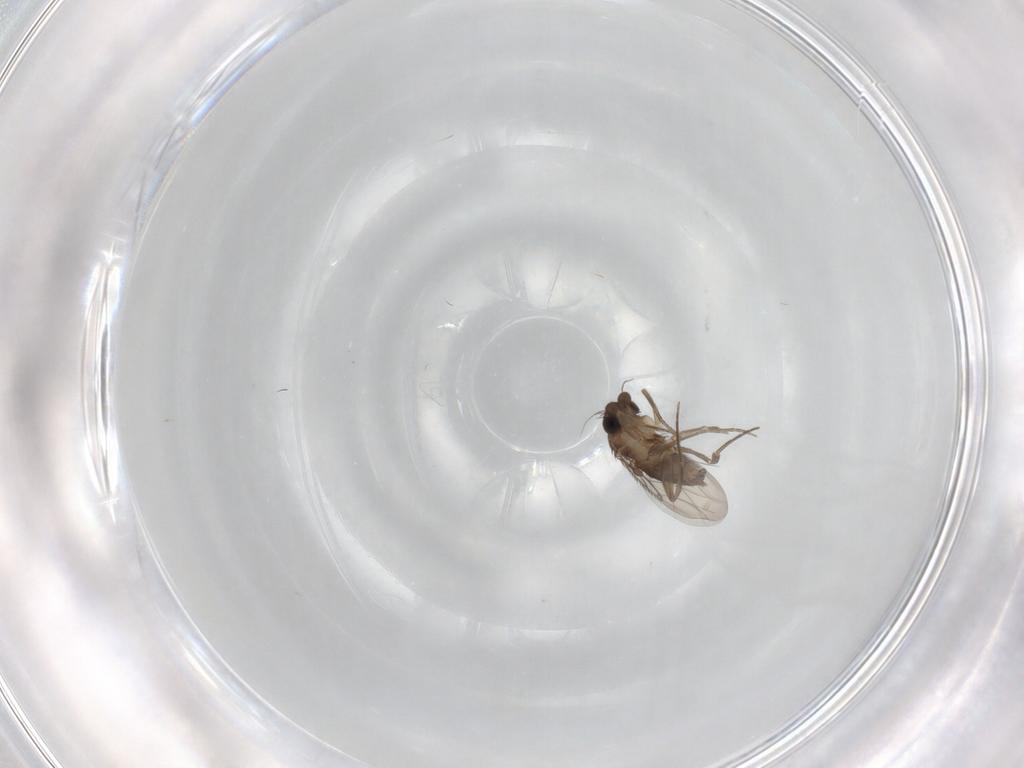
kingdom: Animalia
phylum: Arthropoda
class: Insecta
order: Diptera
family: Phoridae
